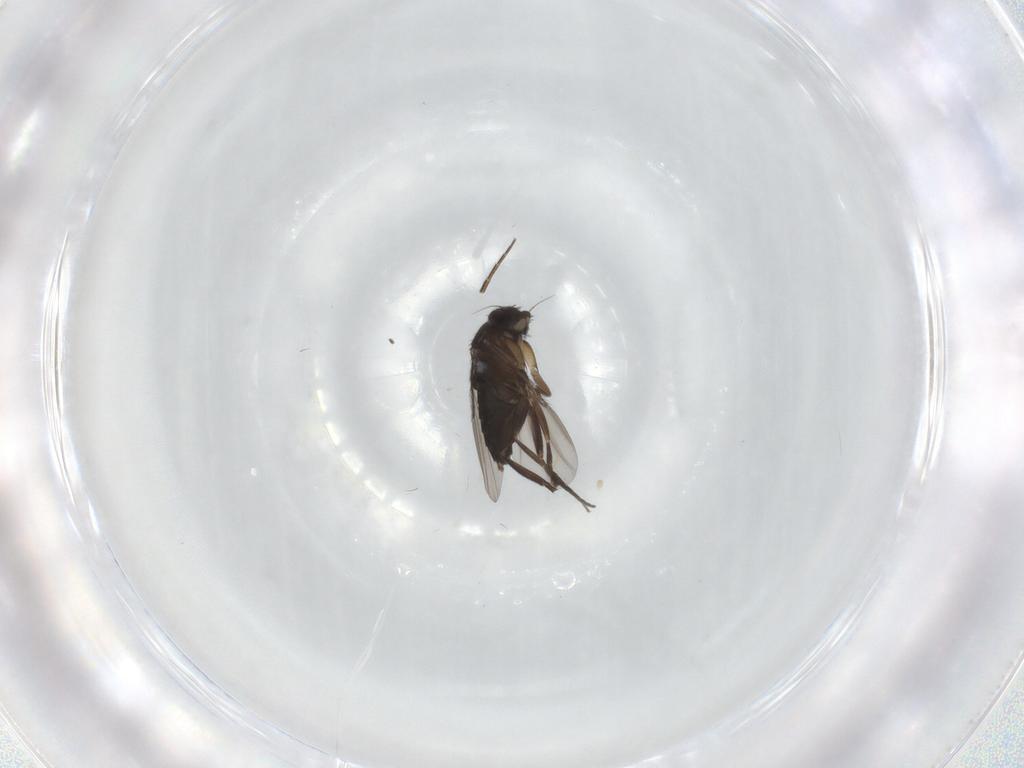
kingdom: Animalia
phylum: Arthropoda
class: Insecta
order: Diptera
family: Phoridae
